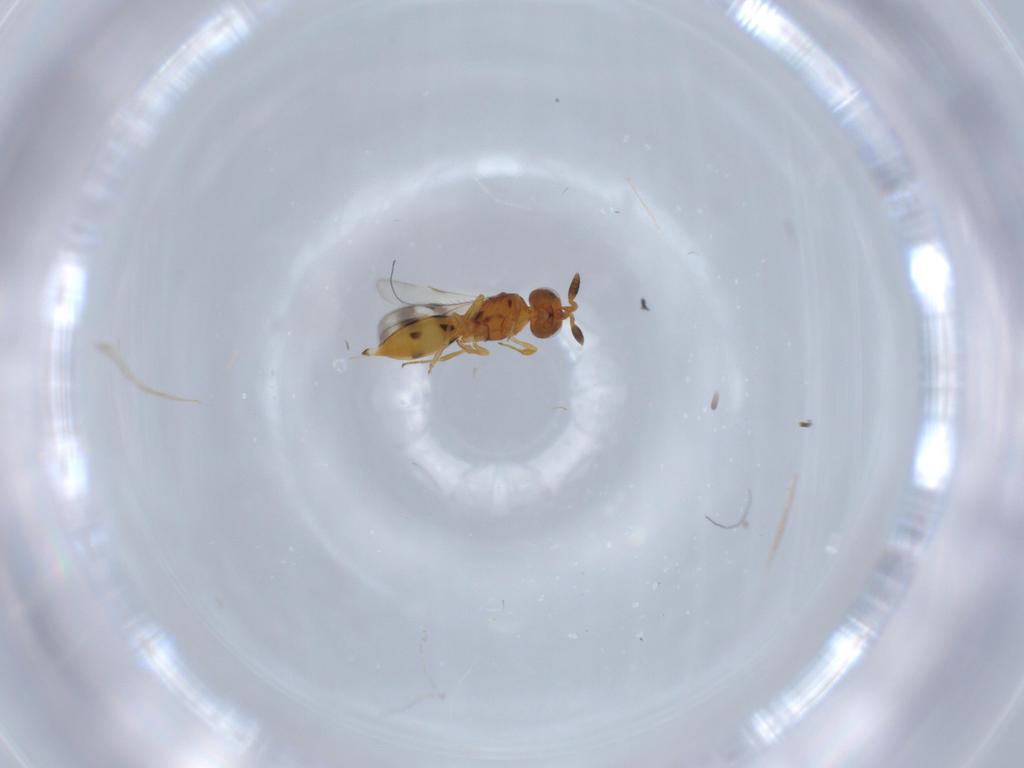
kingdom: Animalia
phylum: Arthropoda
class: Insecta
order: Hymenoptera
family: Scelionidae
